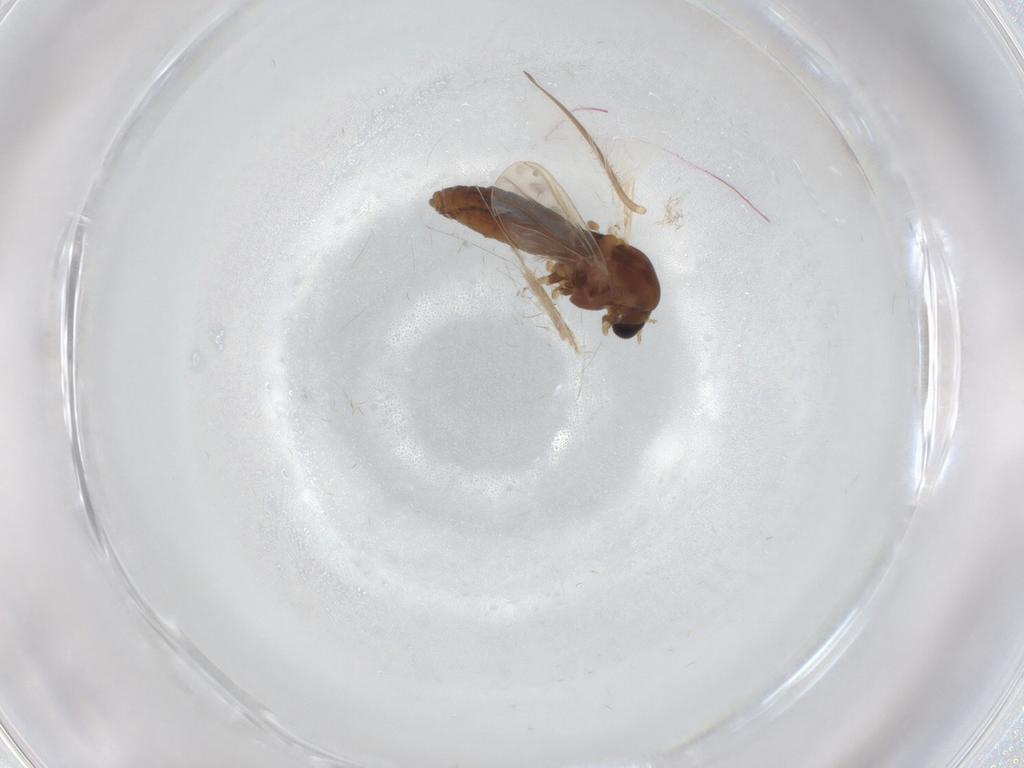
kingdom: Animalia
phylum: Arthropoda
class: Insecta
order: Diptera
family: Chironomidae
